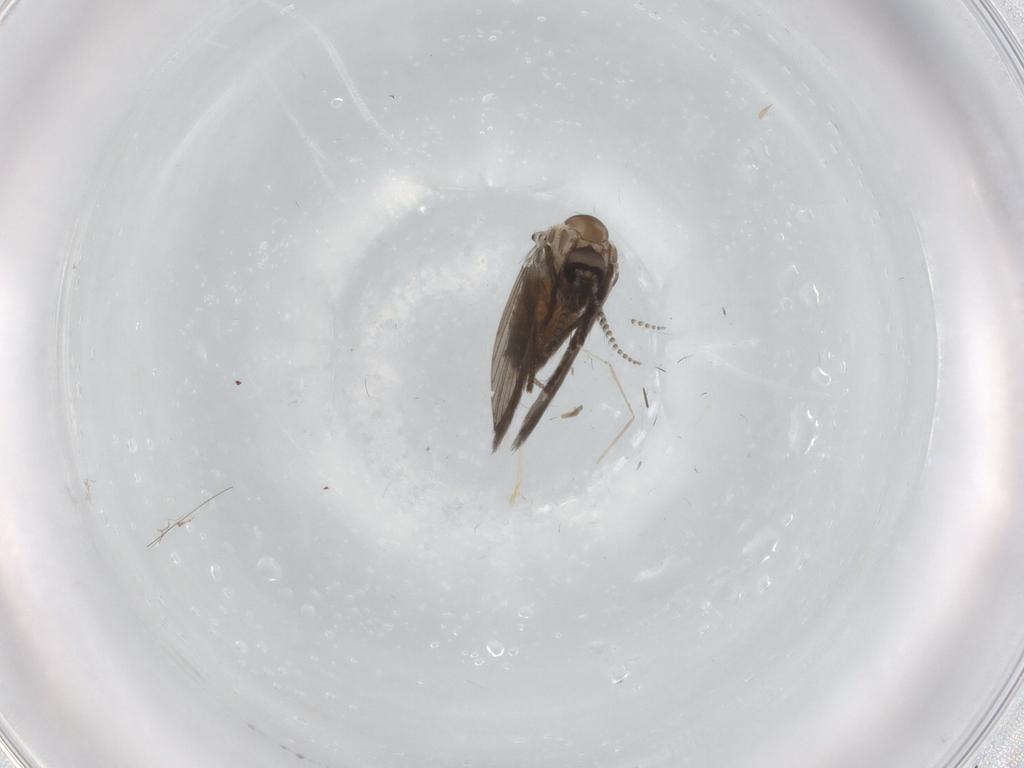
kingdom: Animalia
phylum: Arthropoda
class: Insecta
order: Diptera
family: Psychodidae
